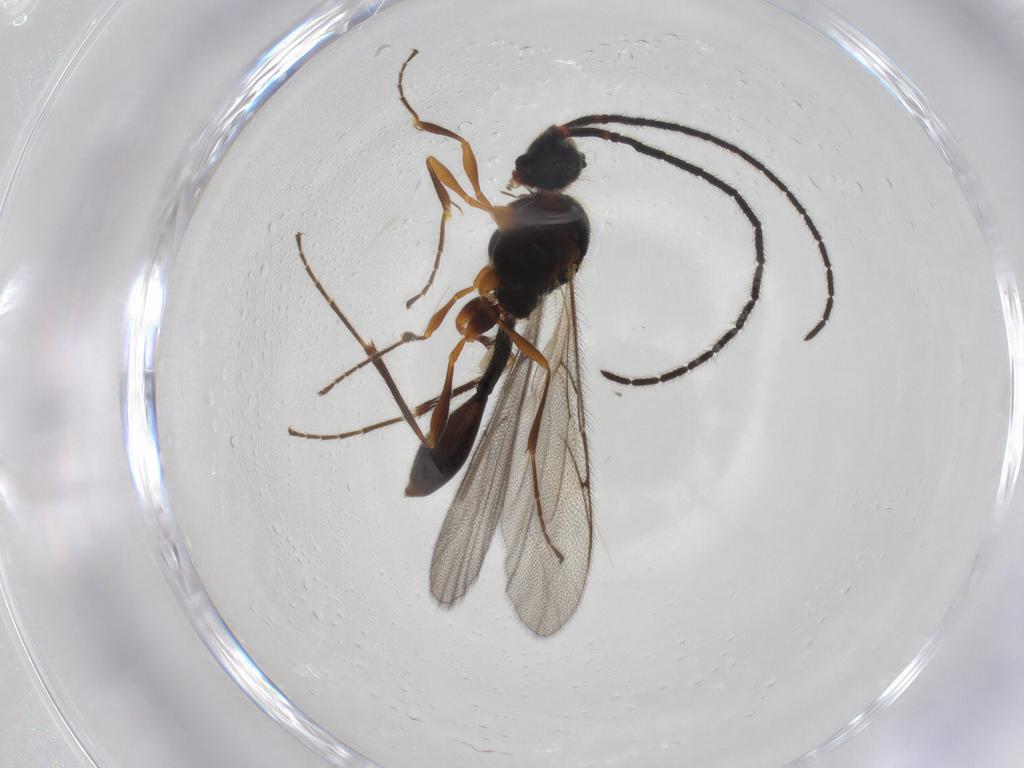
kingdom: Animalia
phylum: Arthropoda
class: Insecta
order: Hymenoptera
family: Diapriidae
